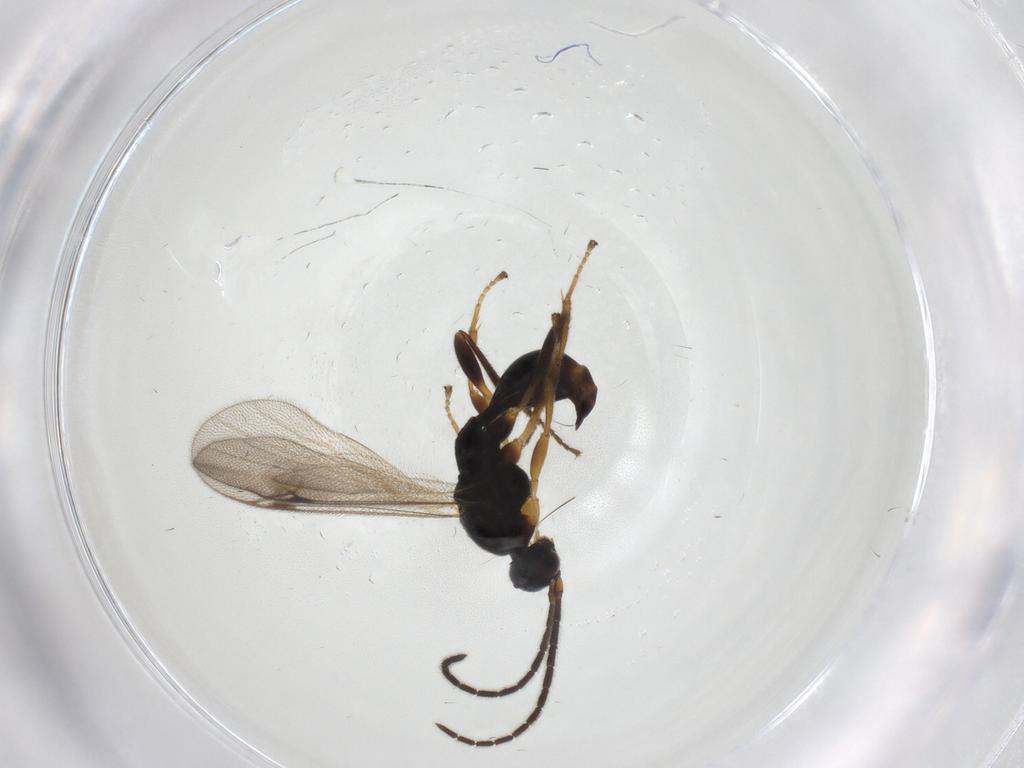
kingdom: Animalia
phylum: Arthropoda
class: Insecta
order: Hymenoptera
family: Proctotrupidae
